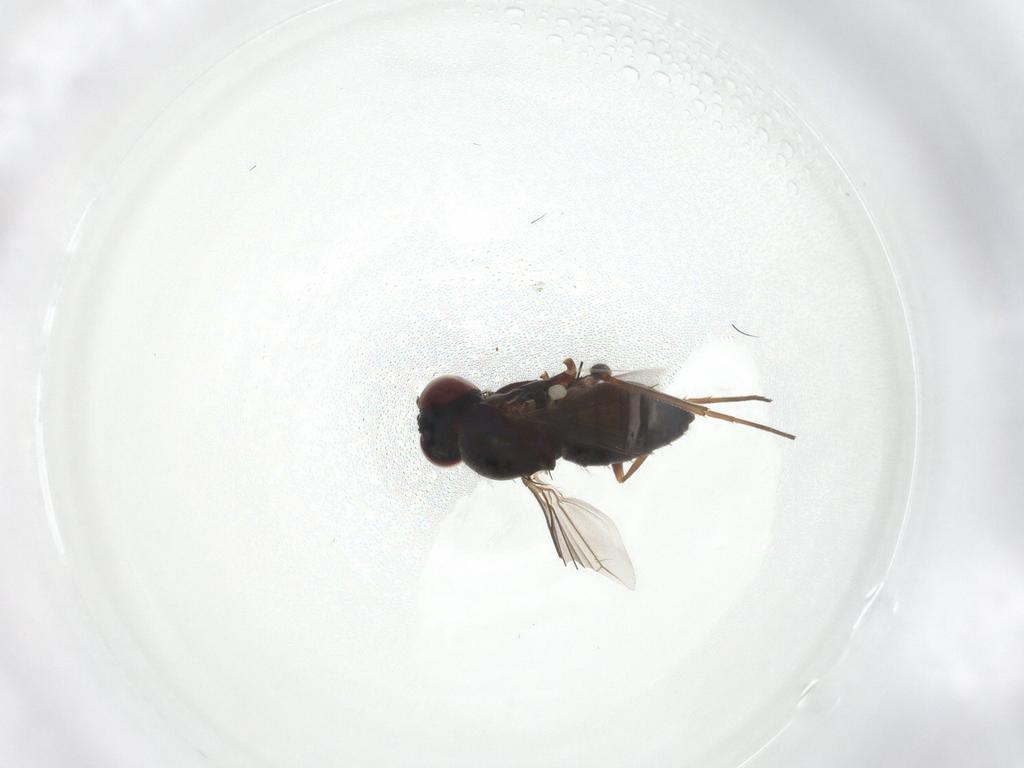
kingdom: Animalia
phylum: Arthropoda
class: Insecta
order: Diptera
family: Dolichopodidae
